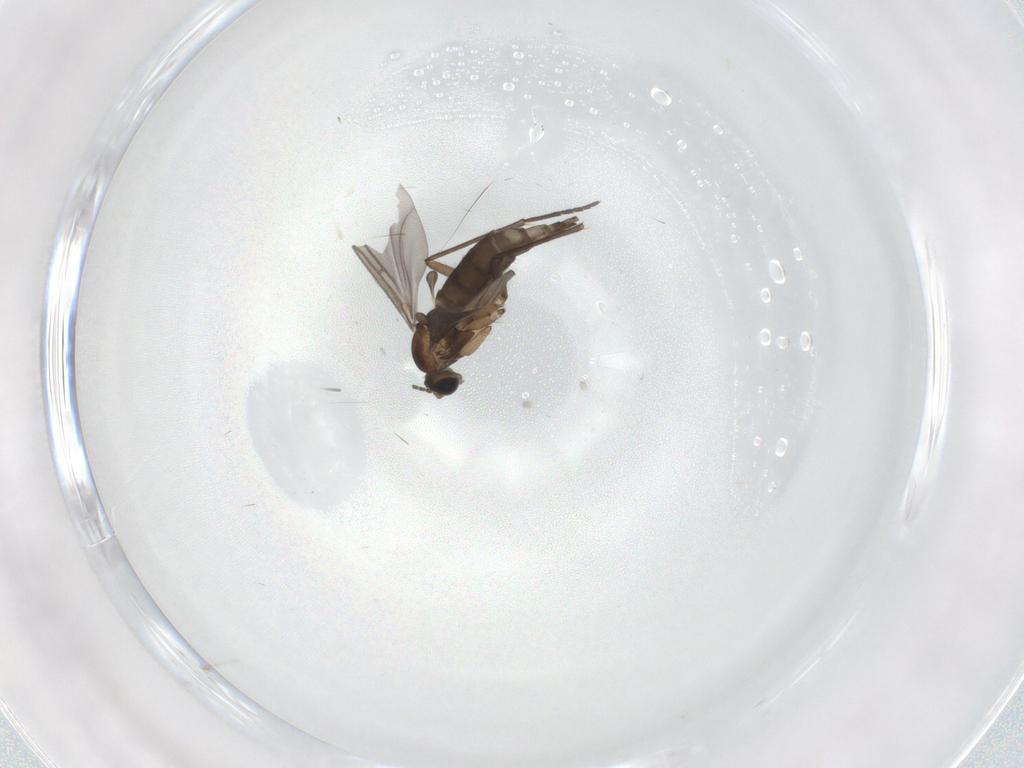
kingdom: Animalia
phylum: Arthropoda
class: Insecta
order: Diptera
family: Sciaridae
